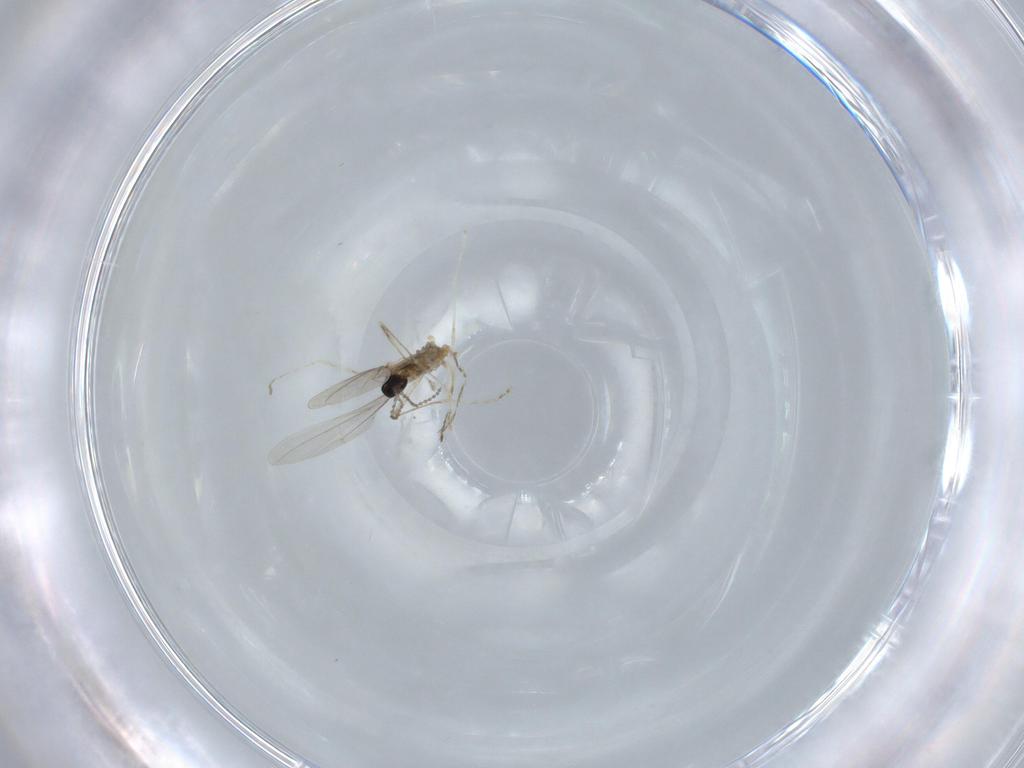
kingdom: Animalia
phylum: Arthropoda
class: Insecta
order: Diptera
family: Cecidomyiidae
